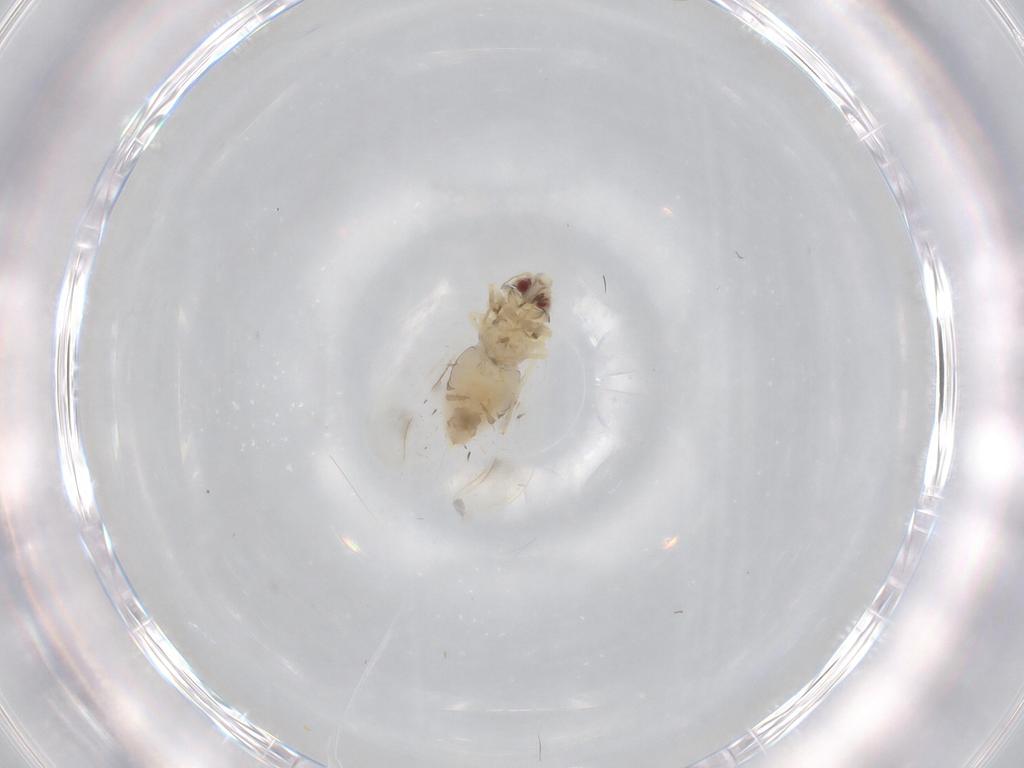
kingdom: Animalia
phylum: Arthropoda
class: Insecta
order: Hemiptera
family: Aleyrodidae
